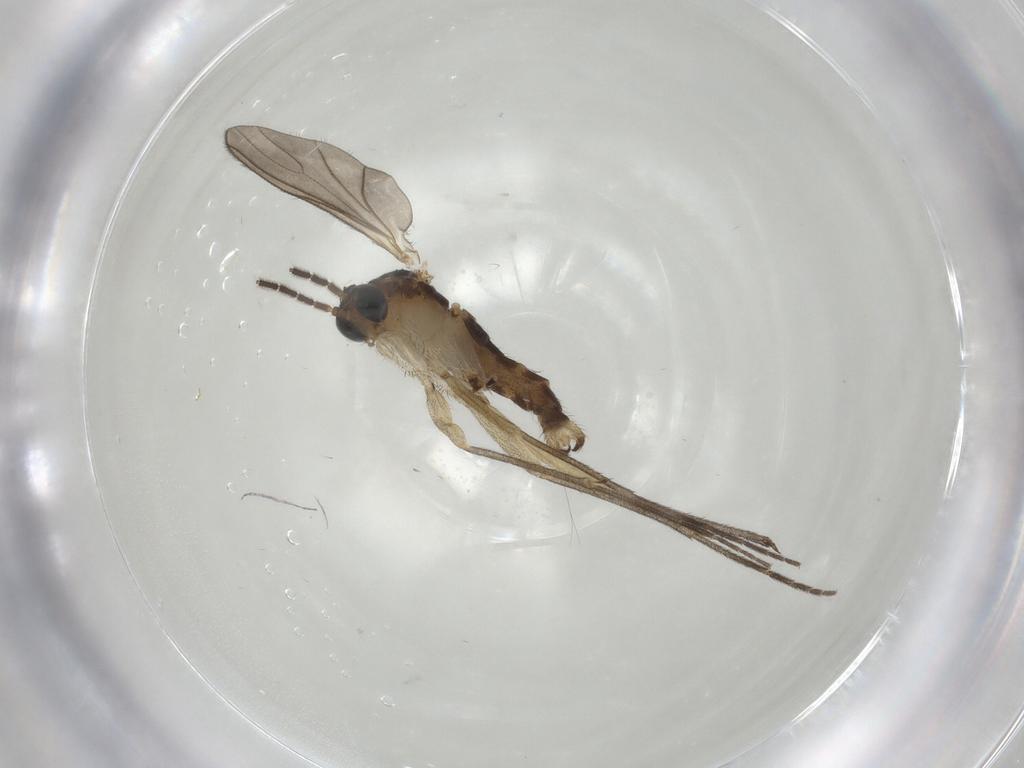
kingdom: Animalia
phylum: Arthropoda
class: Insecta
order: Diptera
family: Sciaridae
